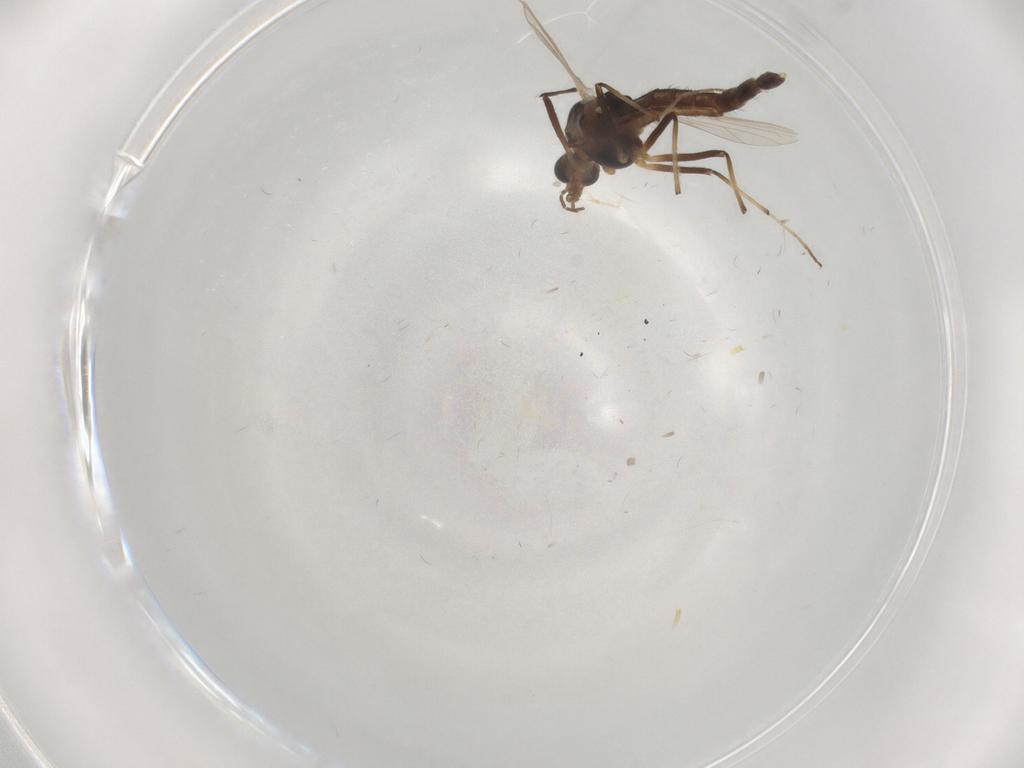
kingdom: Animalia
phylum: Arthropoda
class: Insecta
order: Diptera
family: Chironomidae
